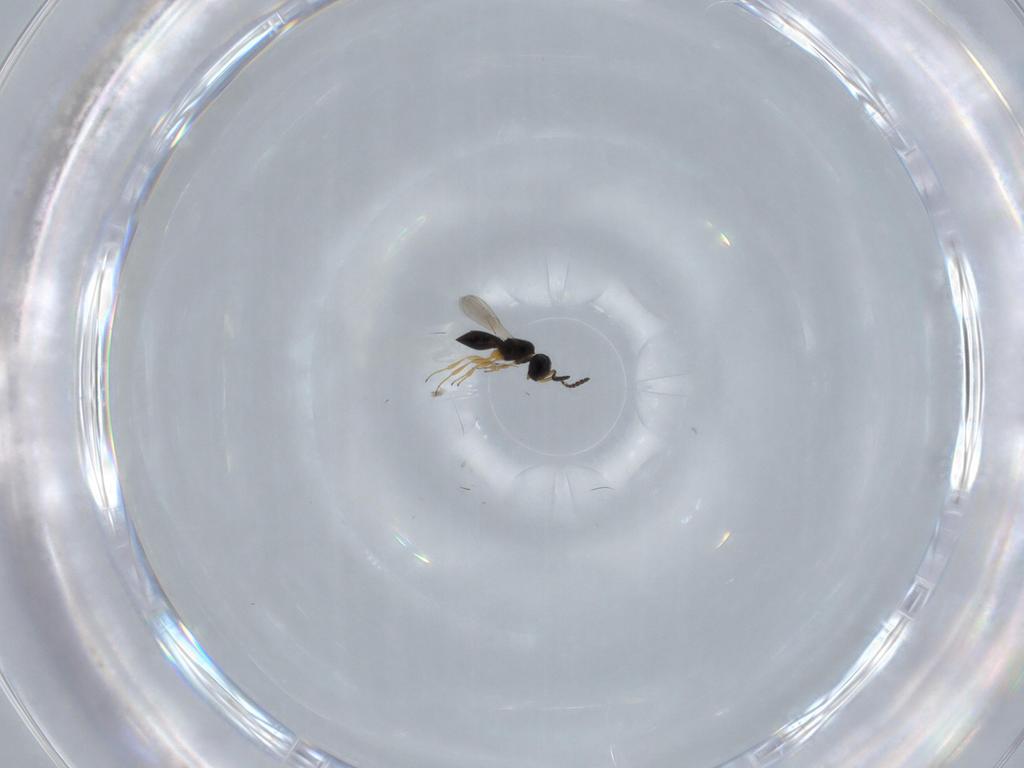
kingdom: Animalia
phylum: Arthropoda
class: Insecta
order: Hymenoptera
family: Scelionidae
